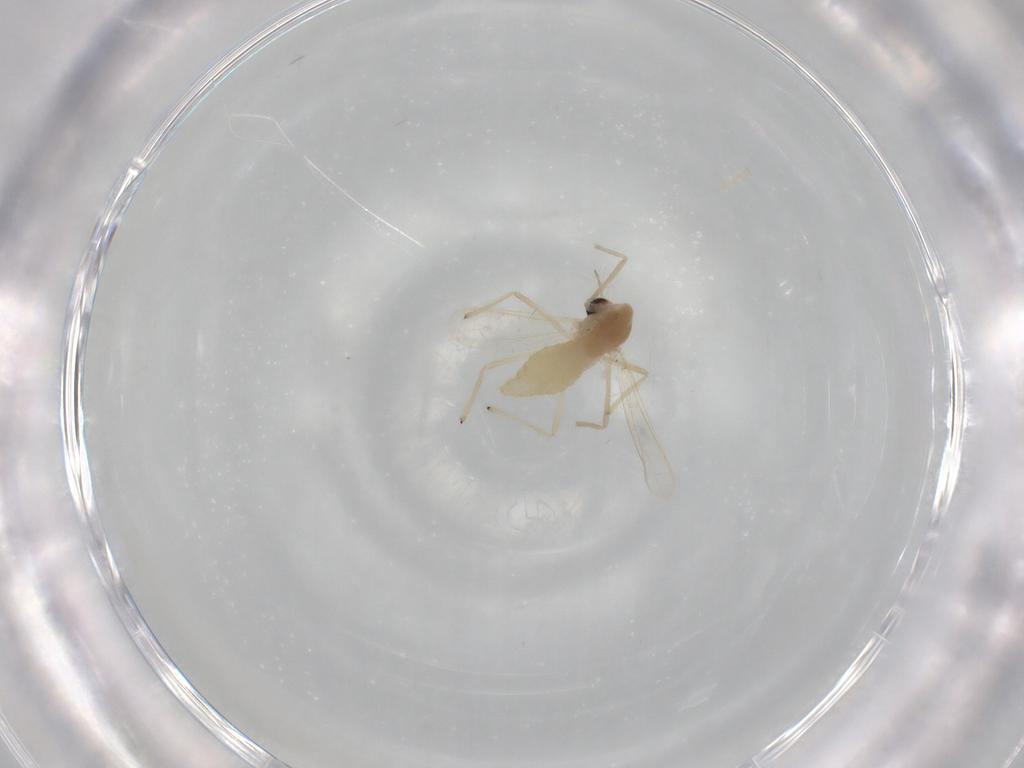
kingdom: Animalia
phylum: Arthropoda
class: Insecta
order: Diptera
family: Chironomidae
